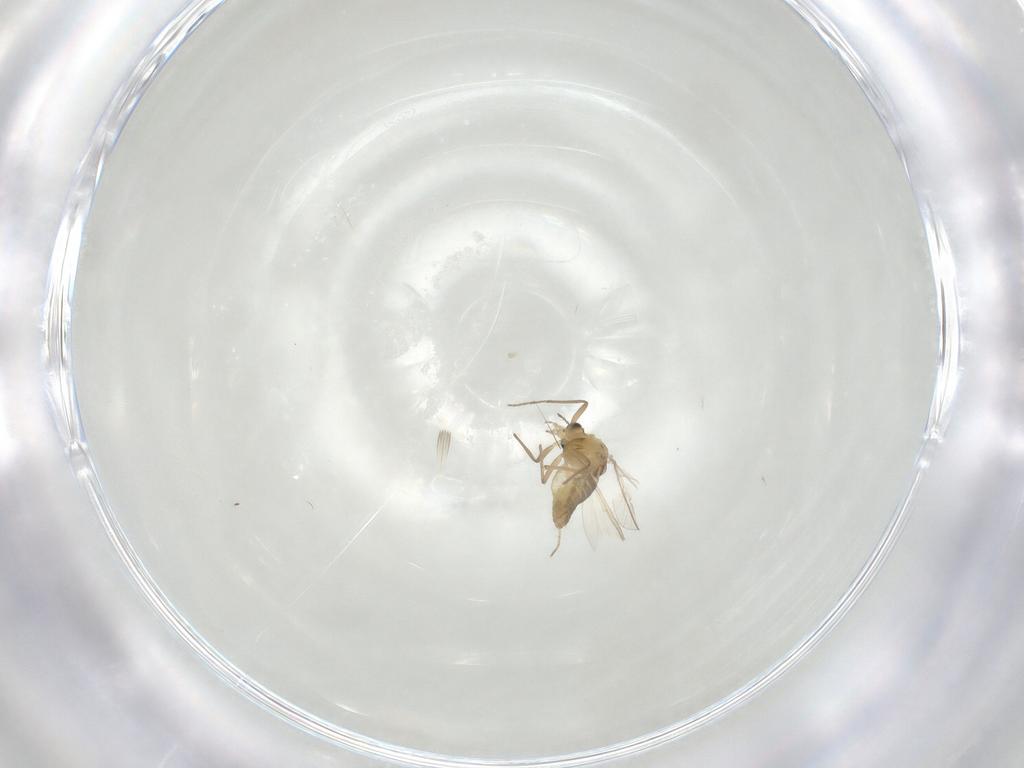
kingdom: Animalia
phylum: Arthropoda
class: Insecta
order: Diptera
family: Chironomidae
